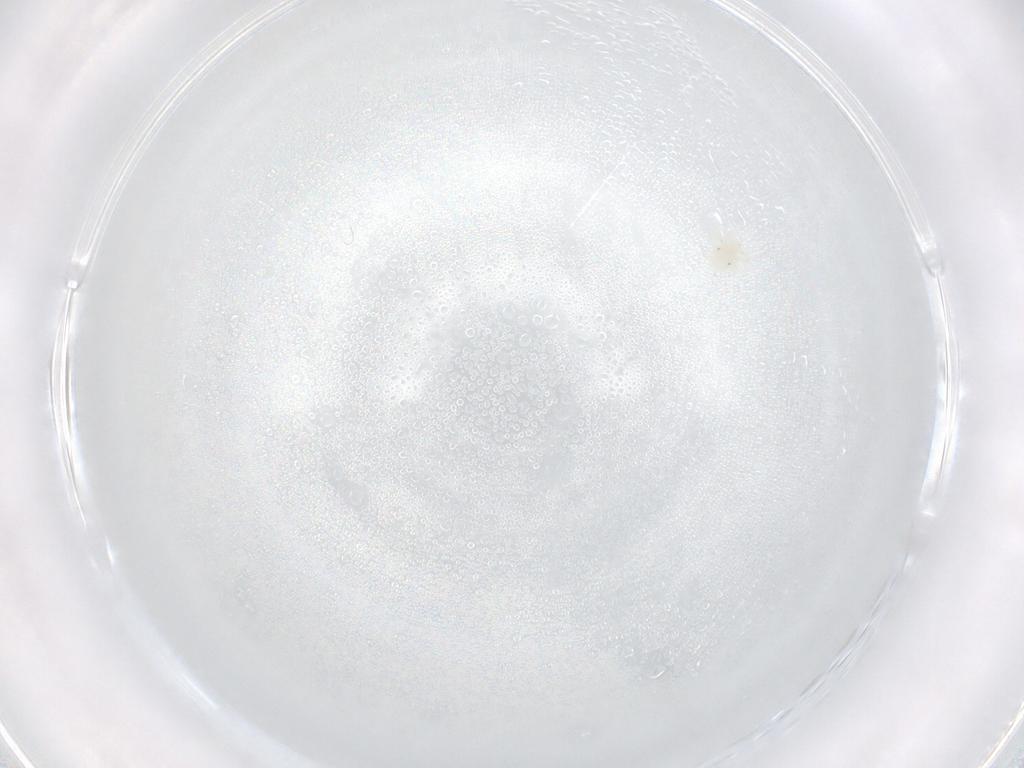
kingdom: Animalia
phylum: Arthropoda
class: Arachnida
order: Trombidiformes
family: Anystidae
